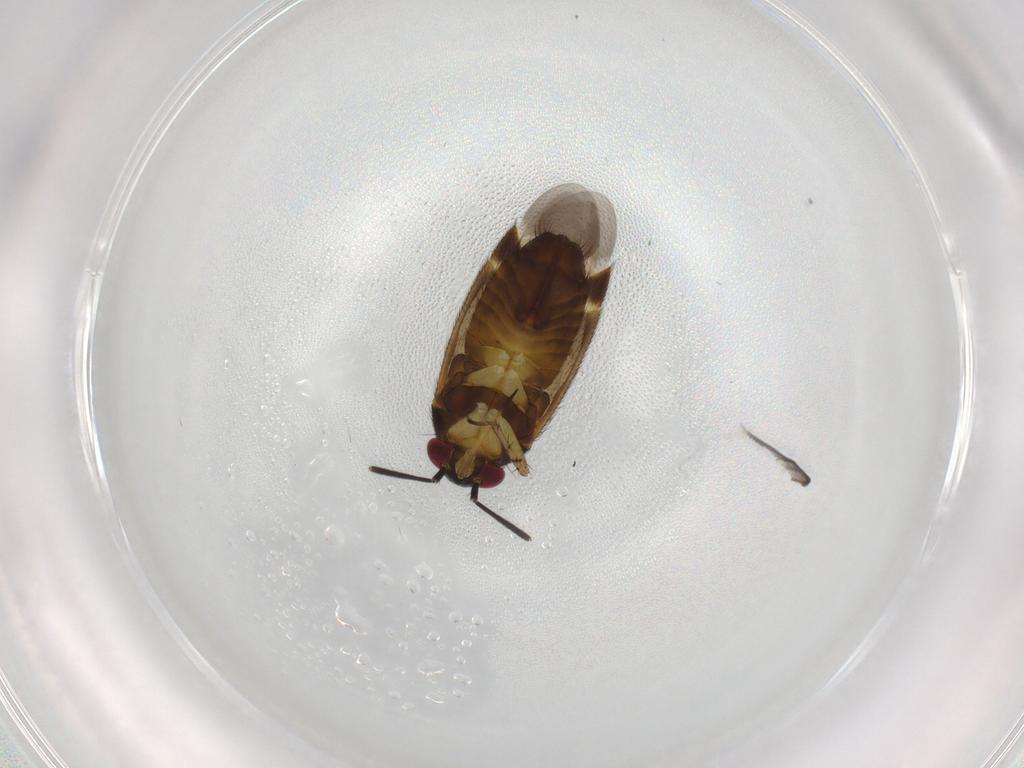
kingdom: Animalia
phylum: Arthropoda
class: Insecta
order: Hemiptera
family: Miridae
